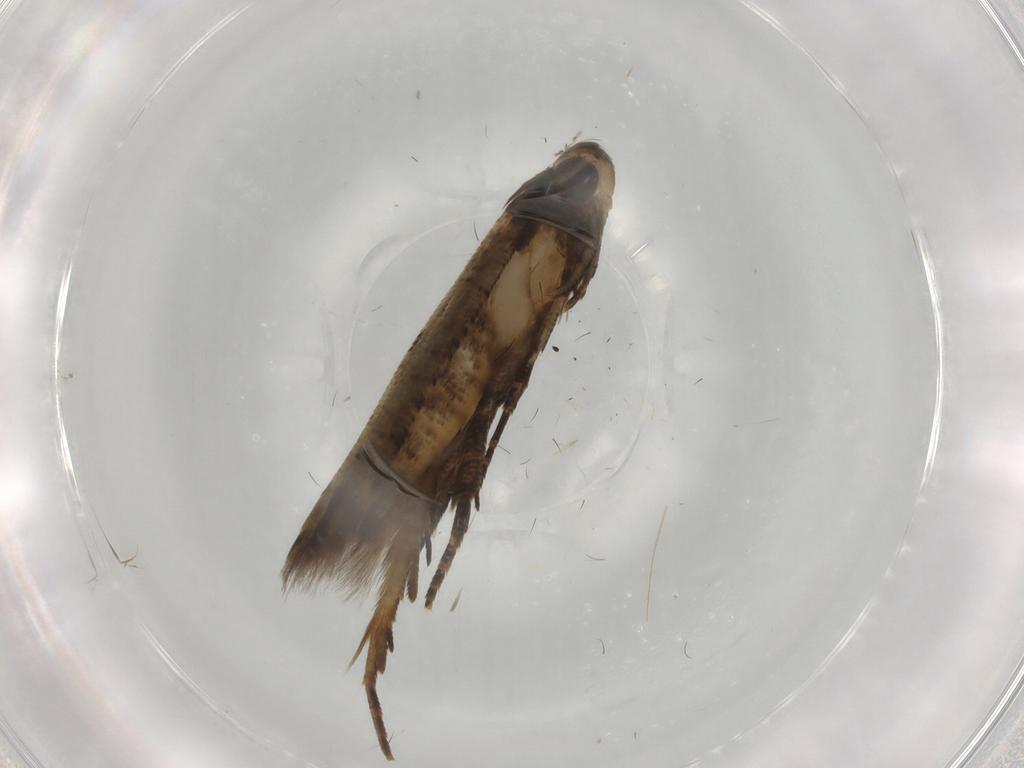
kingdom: Animalia
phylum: Arthropoda
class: Insecta
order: Lepidoptera
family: Depressariidae
